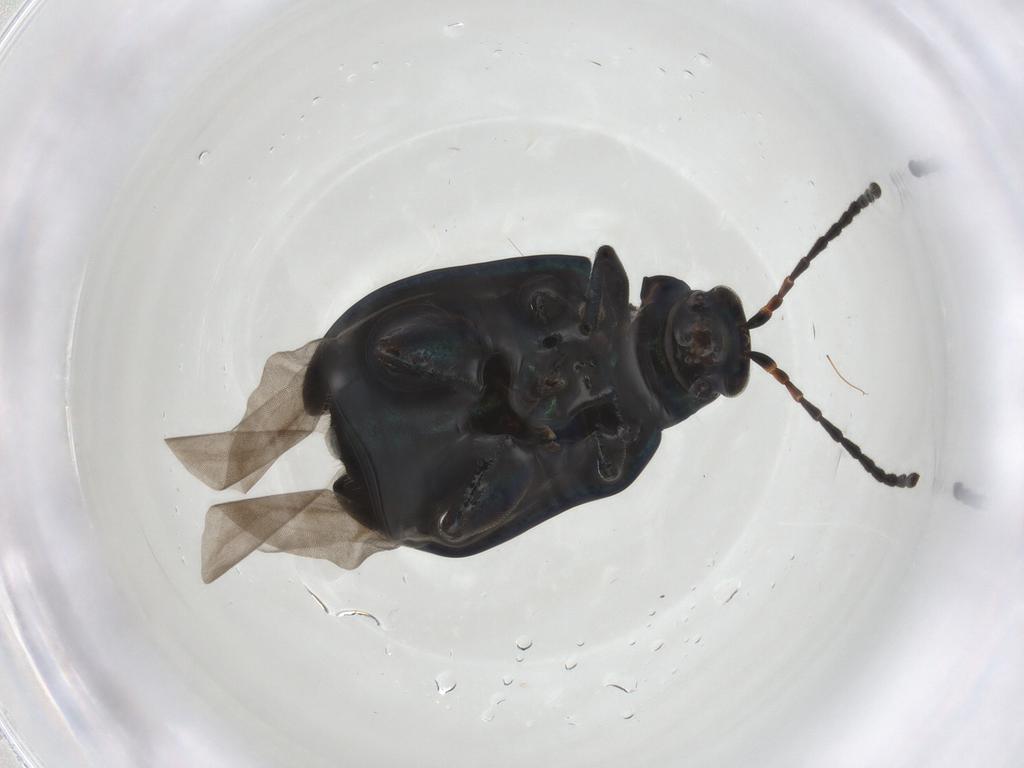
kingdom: Animalia
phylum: Arthropoda
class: Insecta
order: Coleoptera
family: Chrysomelidae
